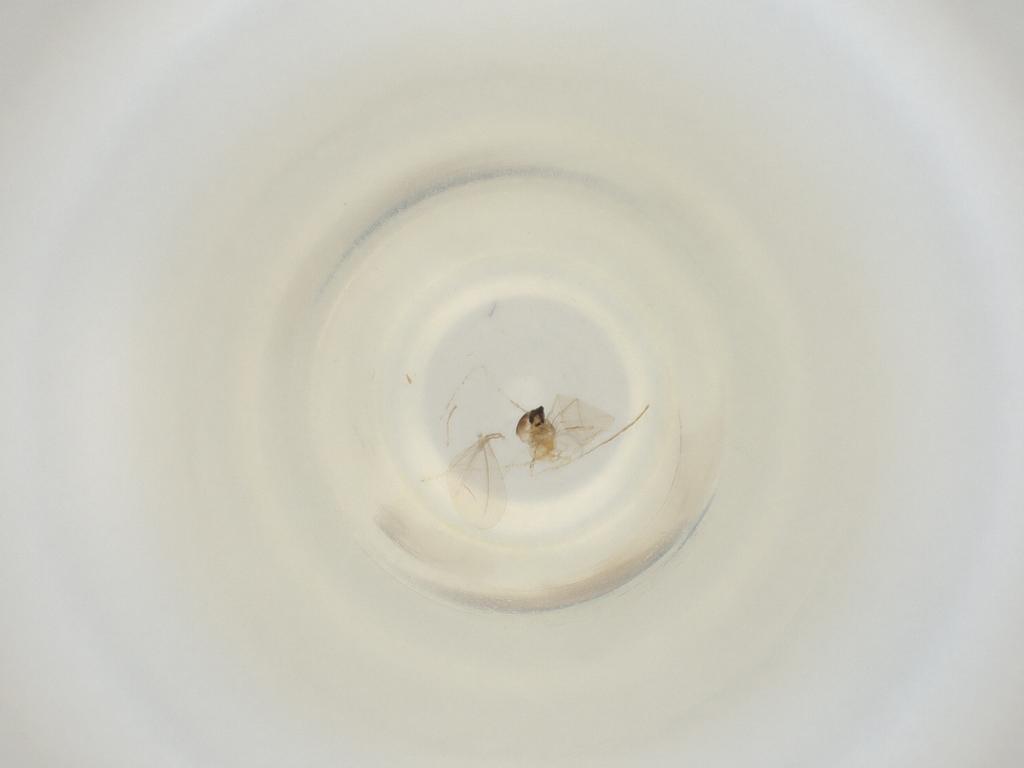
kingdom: Animalia
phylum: Arthropoda
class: Insecta
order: Diptera
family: Cecidomyiidae
